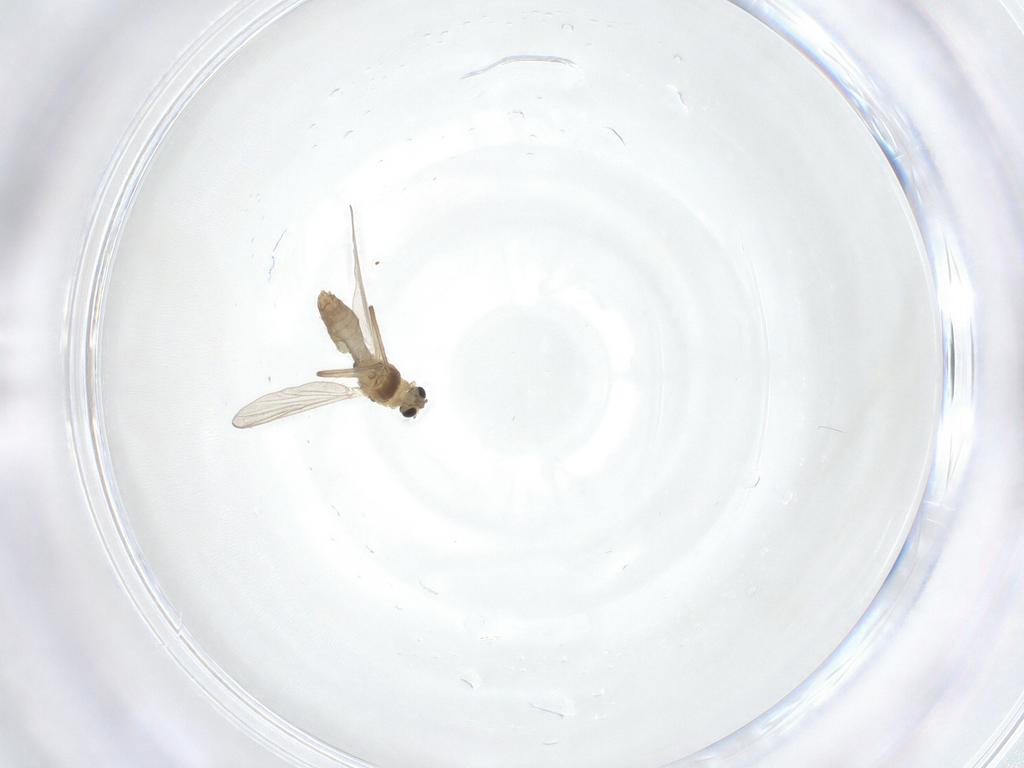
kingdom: Animalia
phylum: Arthropoda
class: Insecta
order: Diptera
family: Chironomidae
